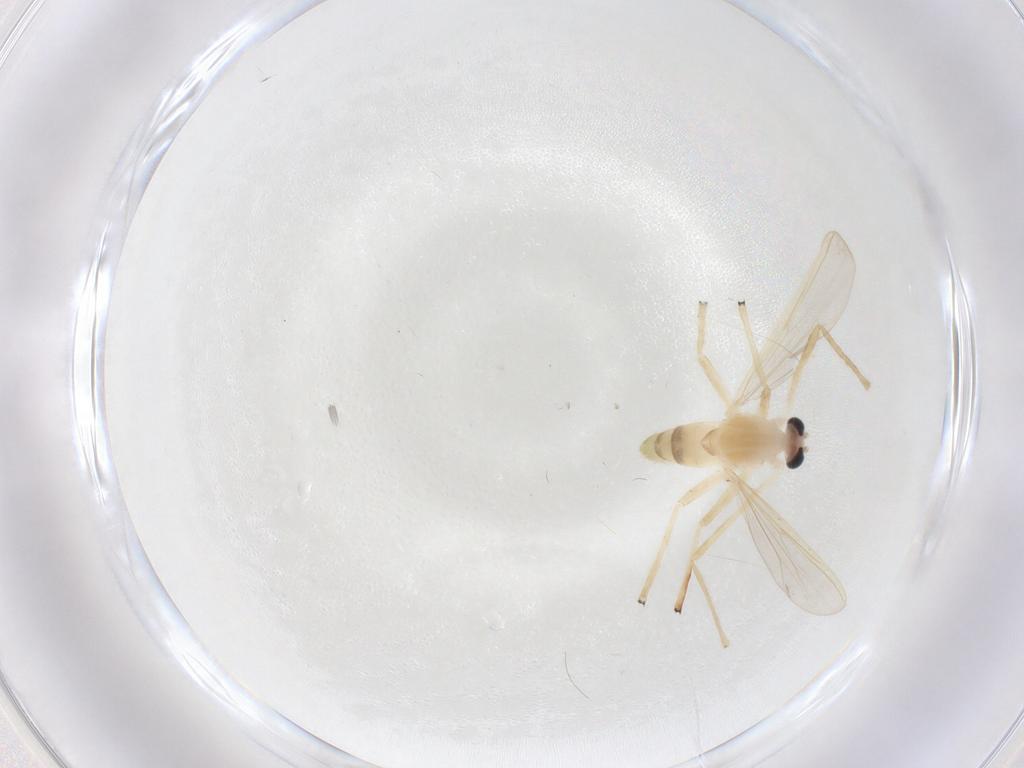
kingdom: Animalia
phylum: Arthropoda
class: Insecta
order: Diptera
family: Chironomidae
